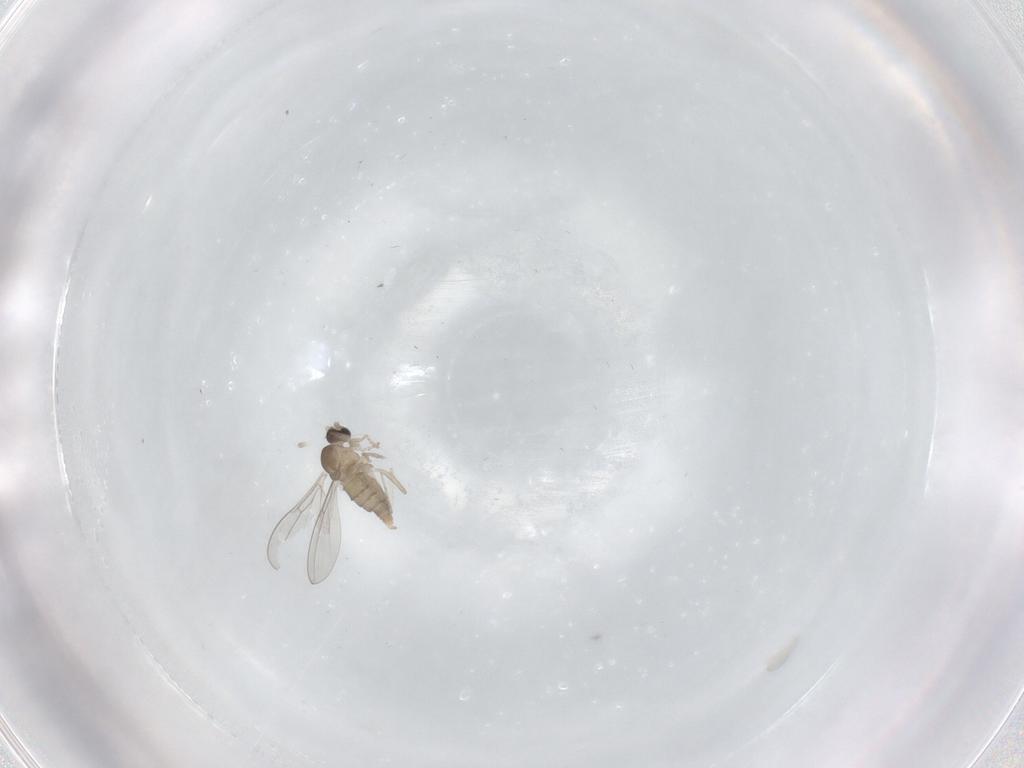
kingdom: Animalia
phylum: Arthropoda
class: Insecta
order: Diptera
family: Cecidomyiidae
